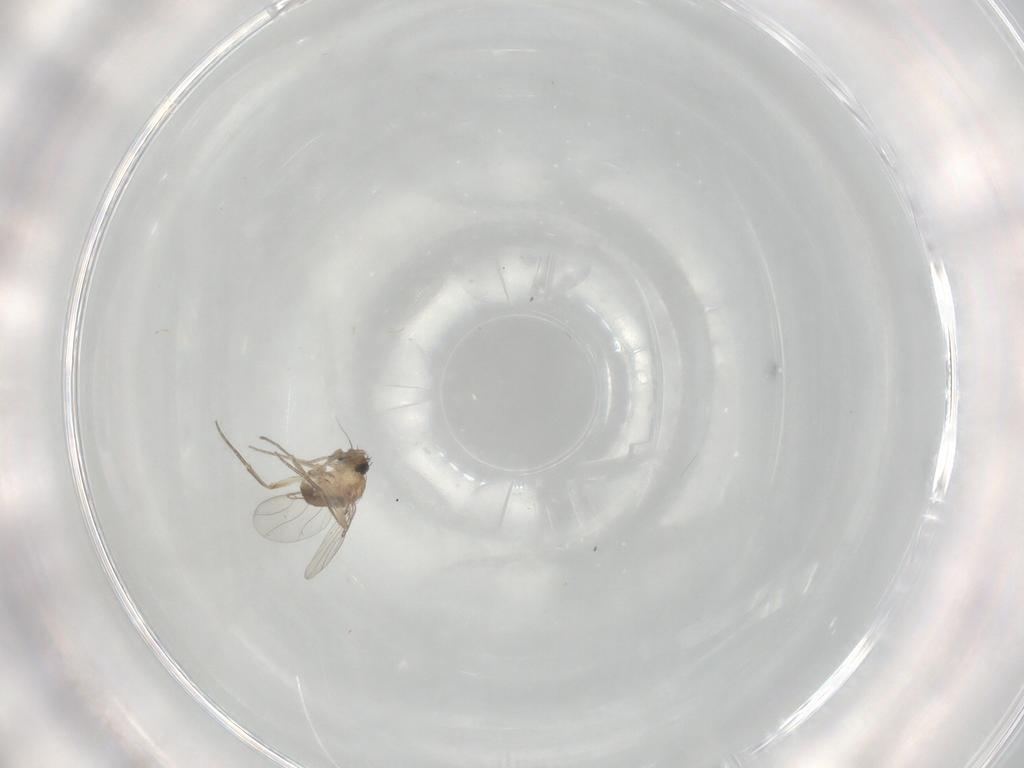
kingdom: Animalia
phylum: Arthropoda
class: Insecta
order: Diptera
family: Phoridae
